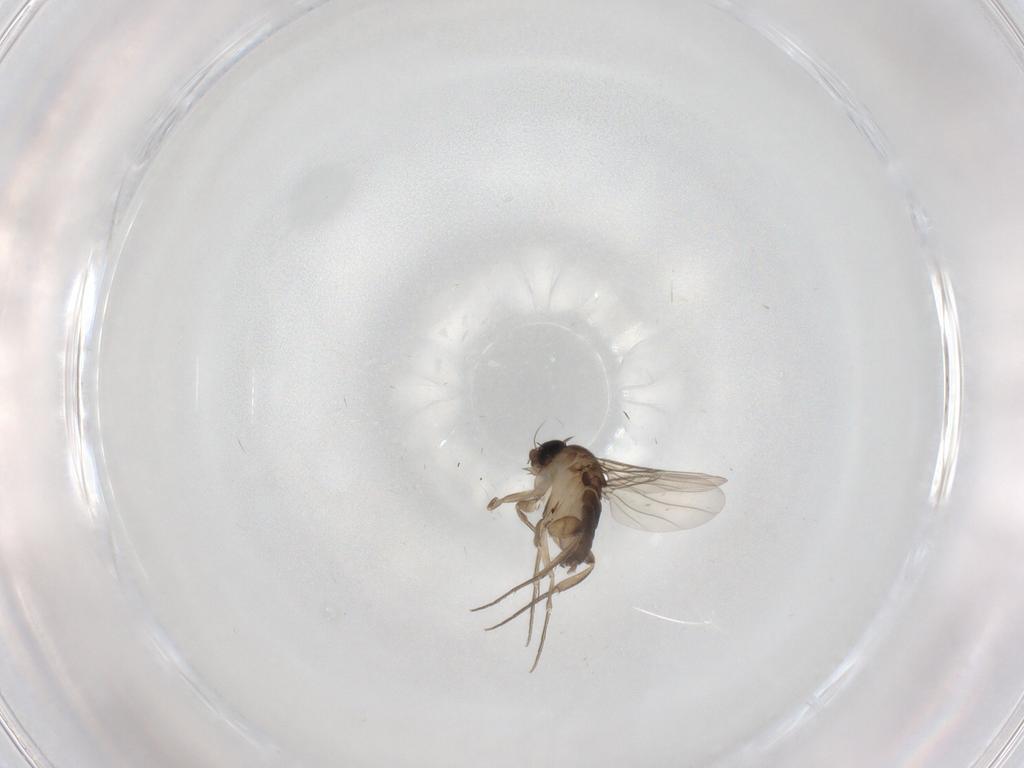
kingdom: Animalia
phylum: Arthropoda
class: Insecta
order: Diptera
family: Phoridae
